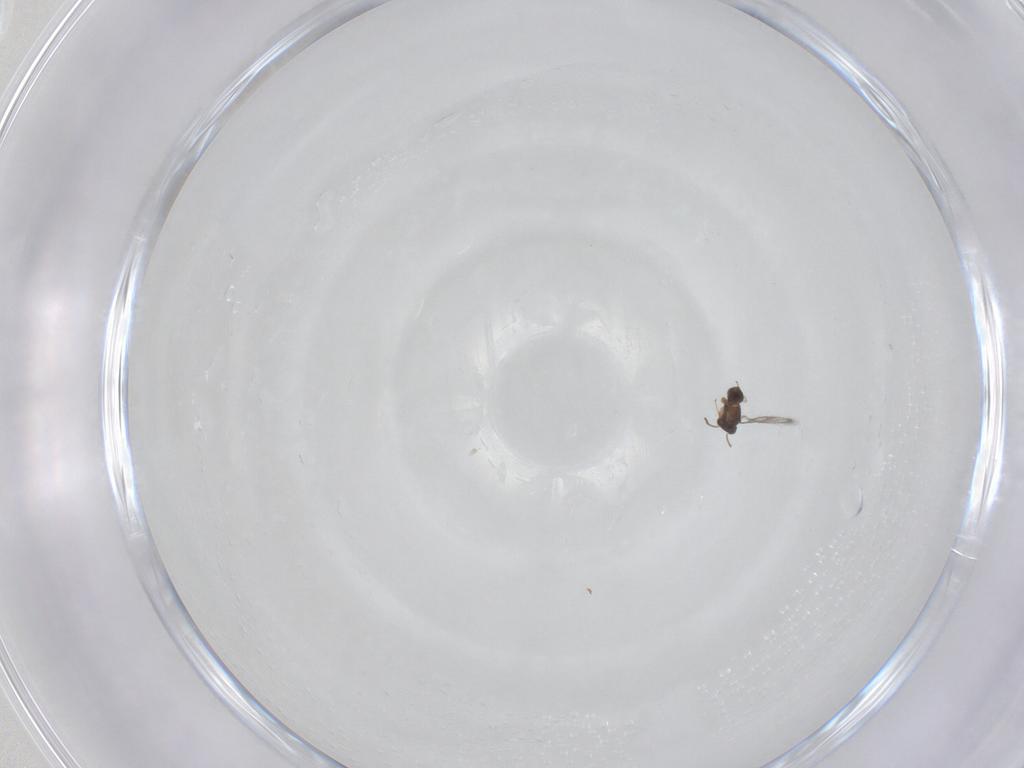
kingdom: Animalia
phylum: Arthropoda
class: Insecta
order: Hymenoptera
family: Mymaridae
